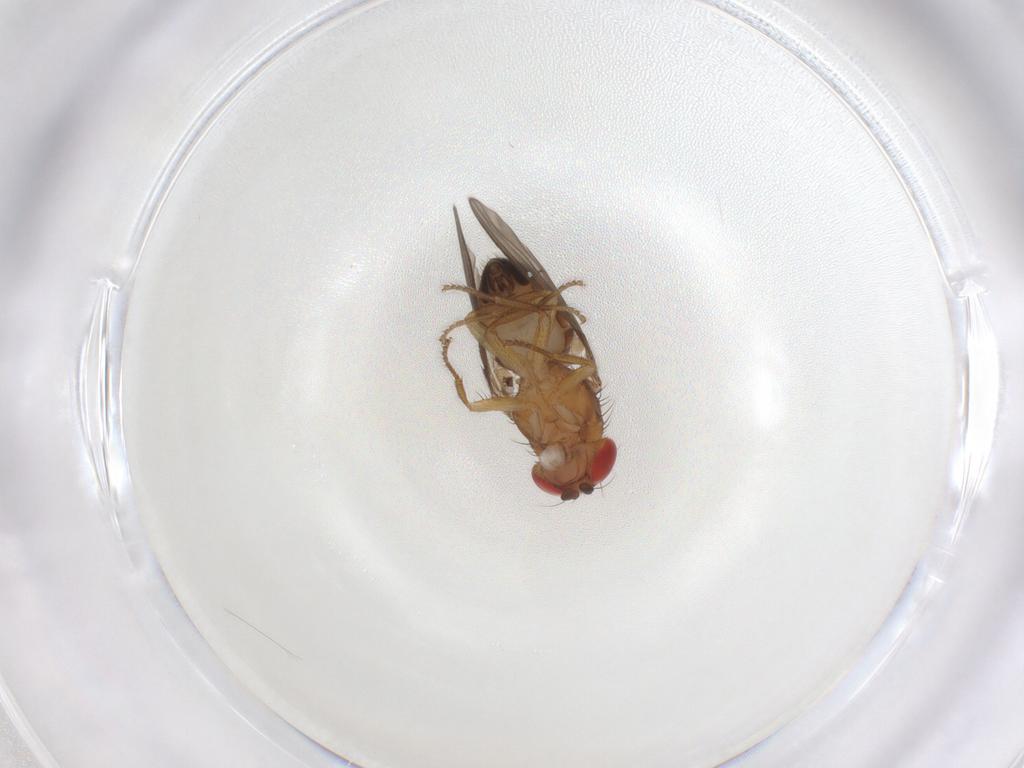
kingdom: Animalia
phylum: Arthropoda
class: Insecta
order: Diptera
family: Drosophilidae
